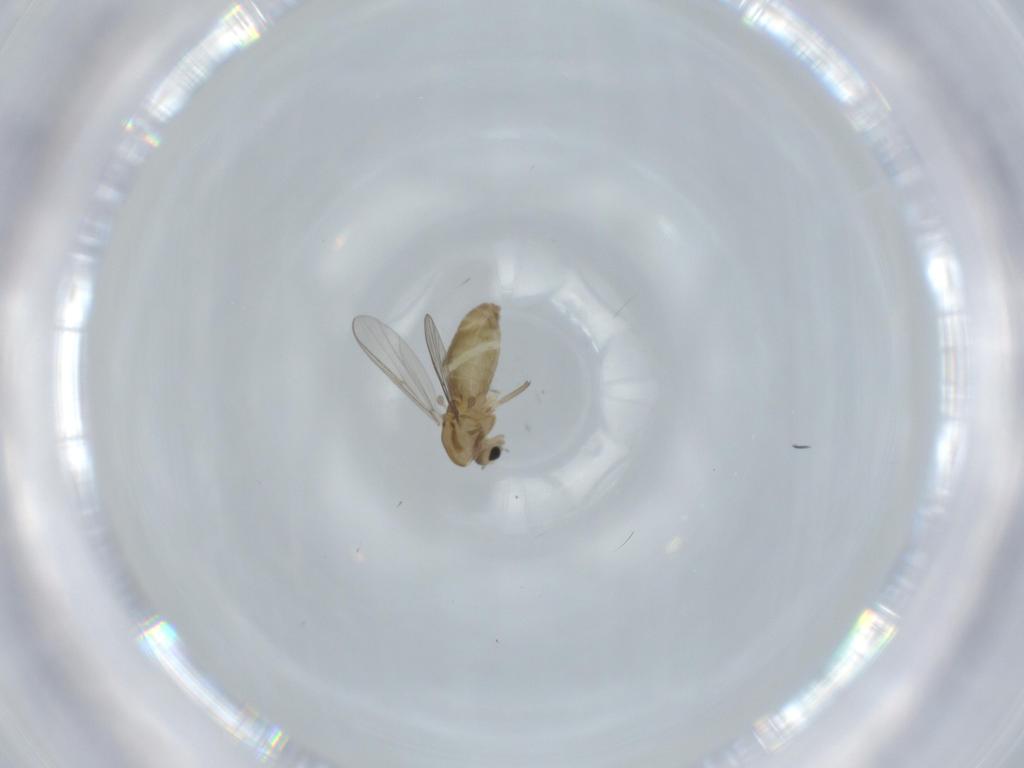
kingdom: Animalia
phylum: Arthropoda
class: Insecta
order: Diptera
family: Chironomidae
